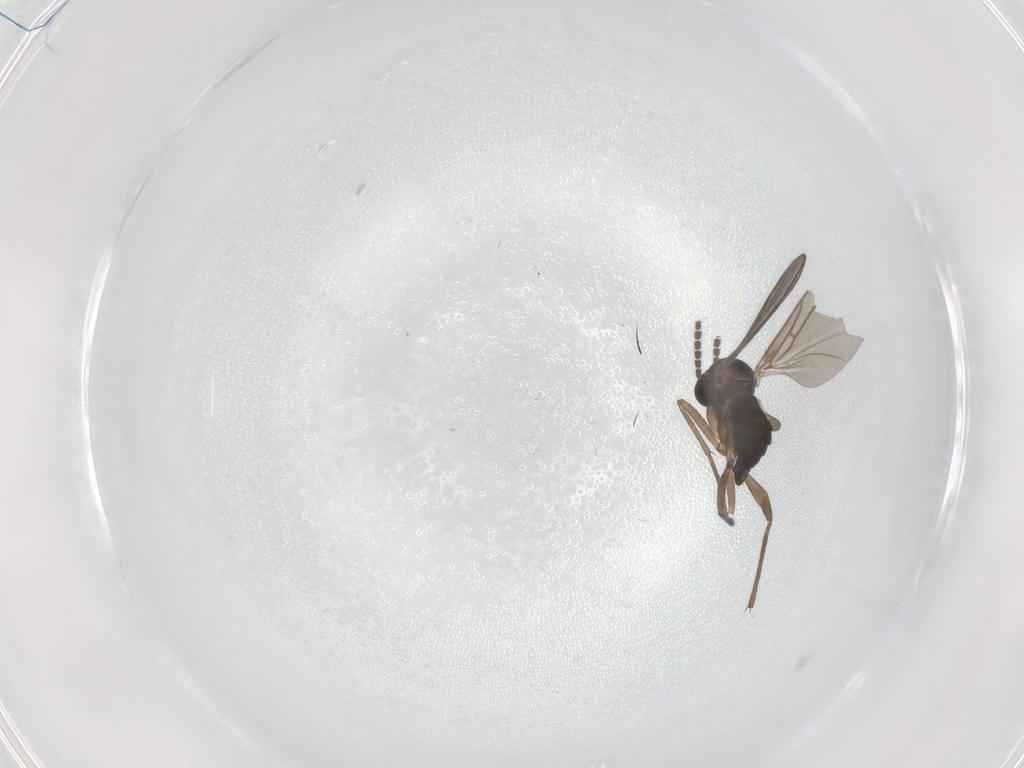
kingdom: Animalia
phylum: Arthropoda
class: Insecta
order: Diptera
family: Sciaridae
